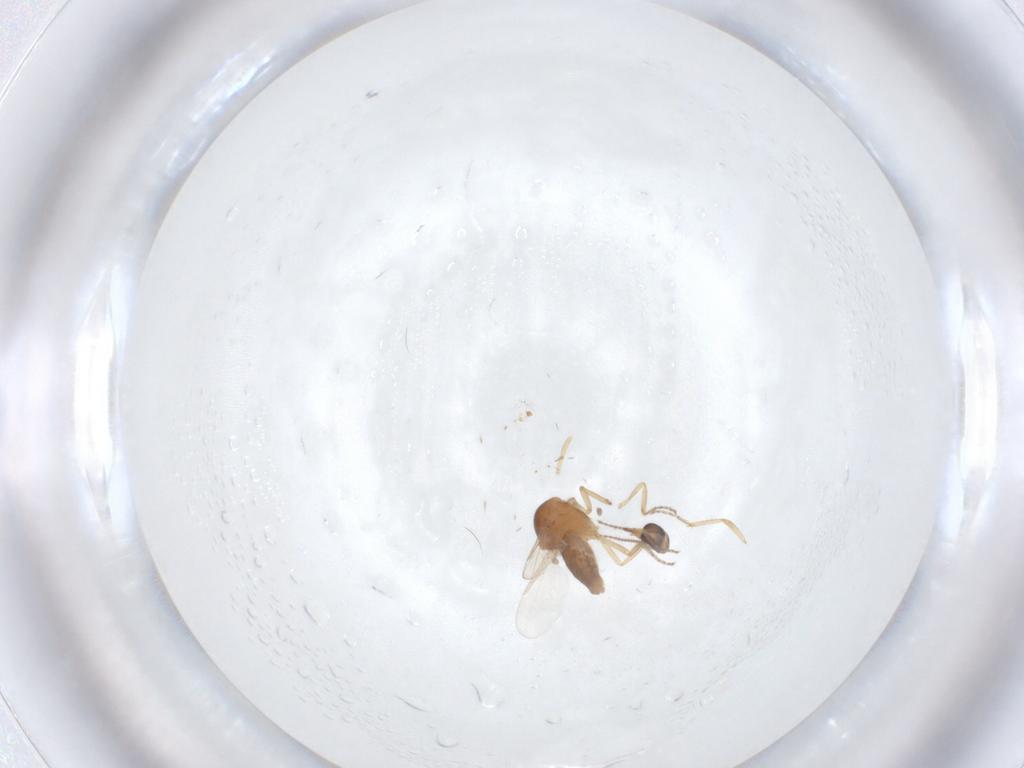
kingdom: Animalia
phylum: Arthropoda
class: Insecta
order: Diptera
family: Ceratopogonidae
